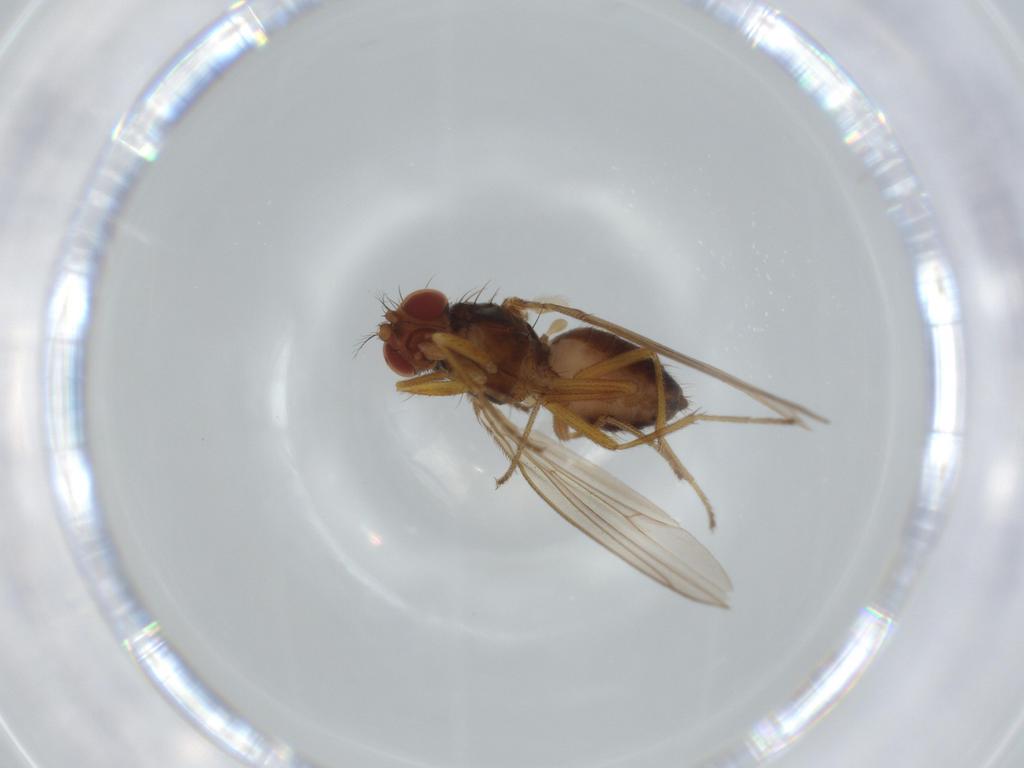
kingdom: Animalia
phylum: Arthropoda
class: Insecta
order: Diptera
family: Drosophilidae
